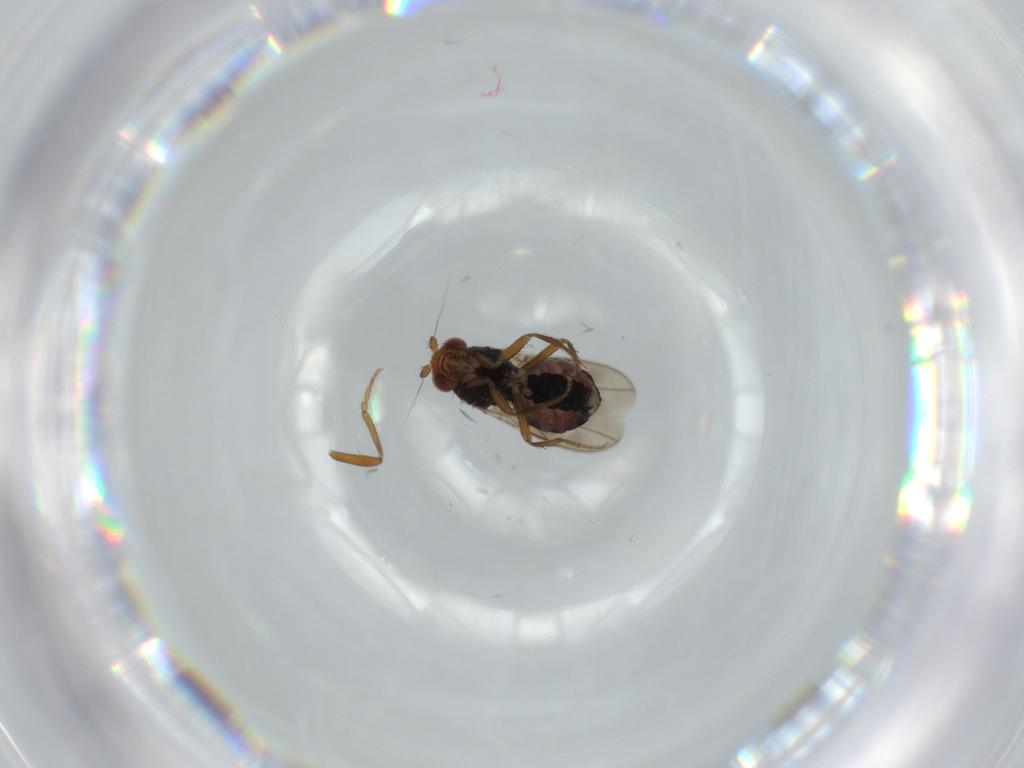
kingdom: Animalia
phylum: Arthropoda
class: Insecta
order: Diptera
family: Sphaeroceridae
